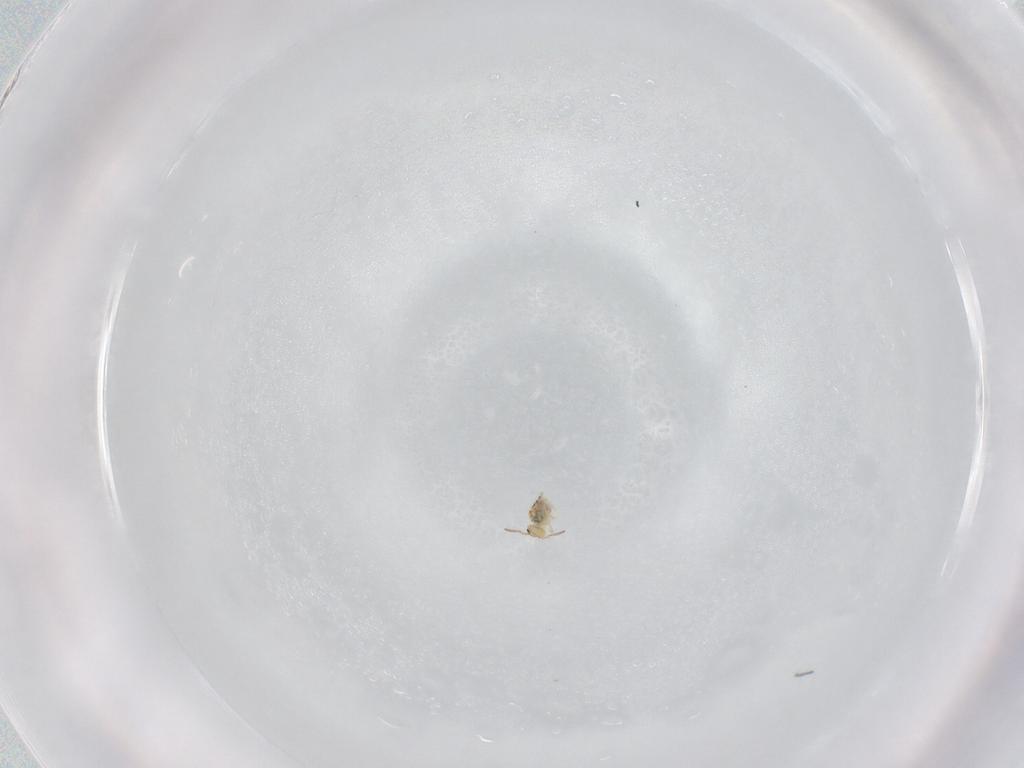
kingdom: Animalia
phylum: Arthropoda
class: Collembola
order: Symphypleona
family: Bourletiellidae
